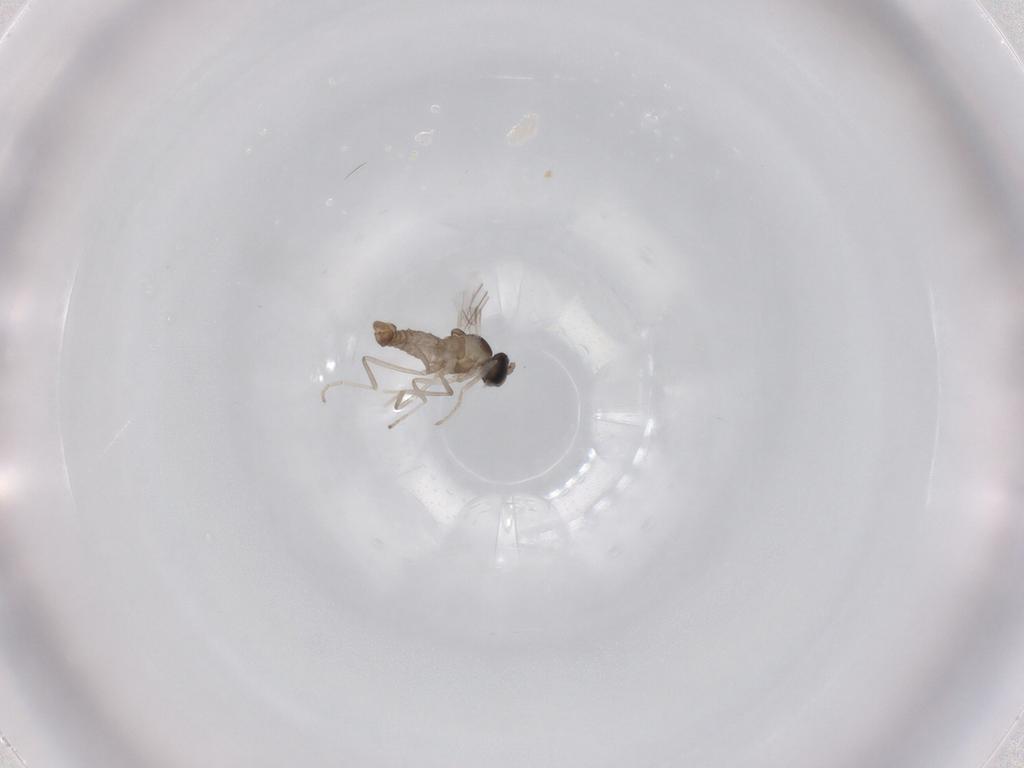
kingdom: Animalia
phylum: Arthropoda
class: Insecta
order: Diptera
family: Cecidomyiidae
